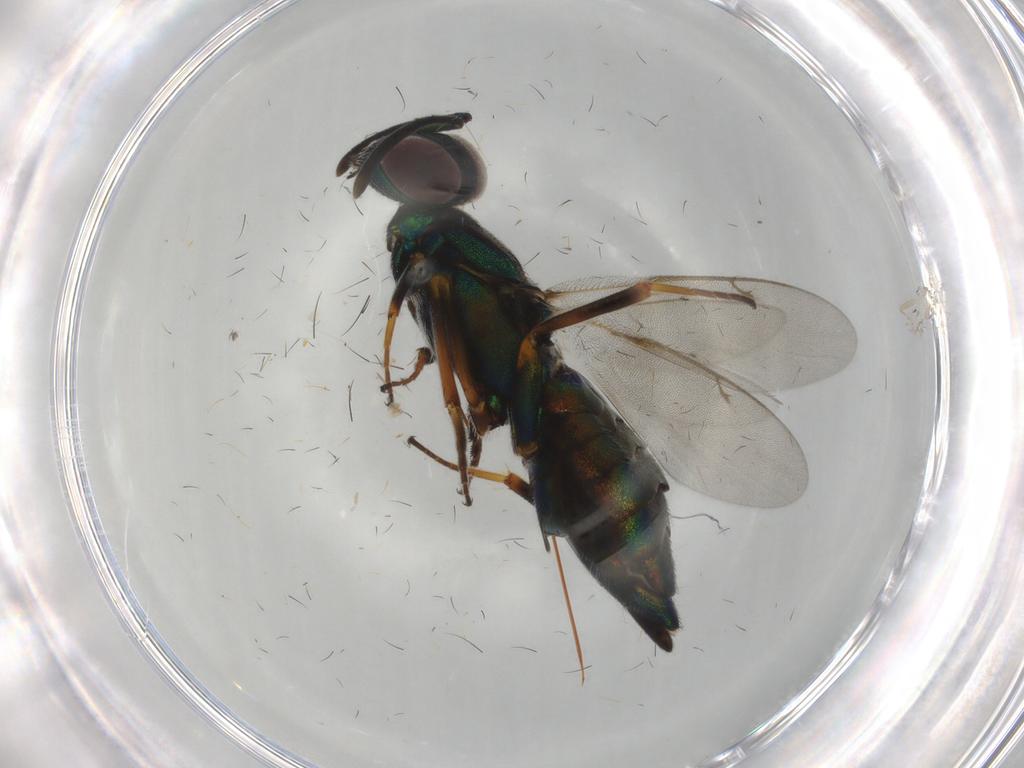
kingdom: Animalia
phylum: Arthropoda
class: Insecta
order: Hymenoptera
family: Eupelmidae
